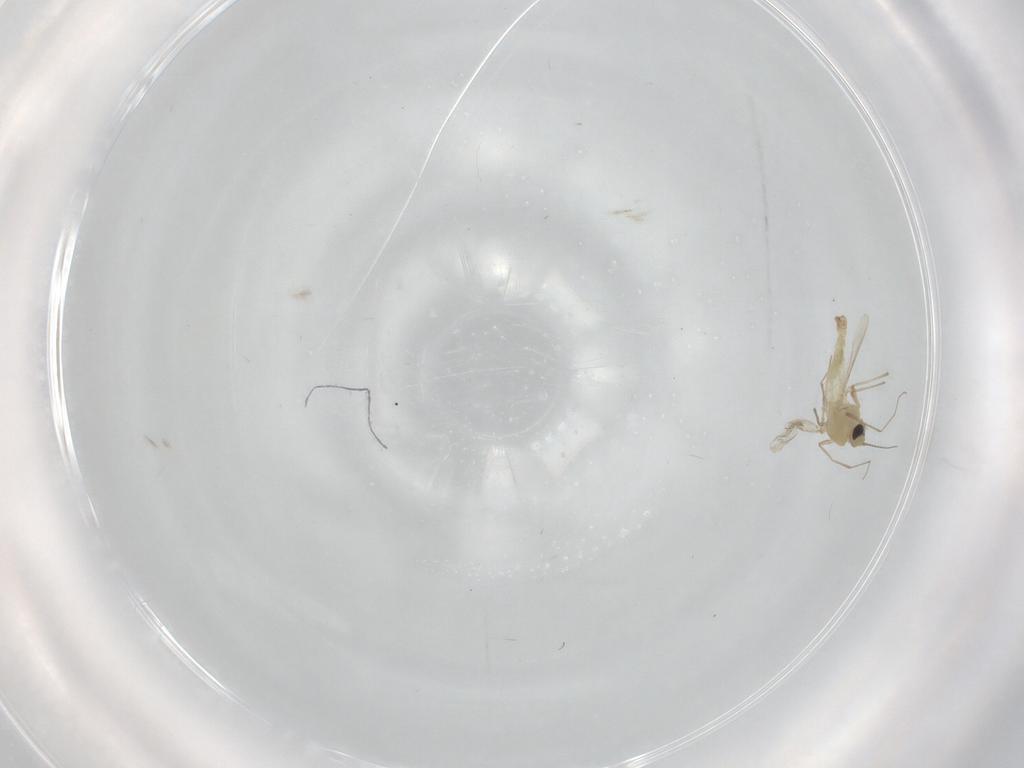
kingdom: Animalia
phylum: Arthropoda
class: Insecta
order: Diptera
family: Chironomidae
